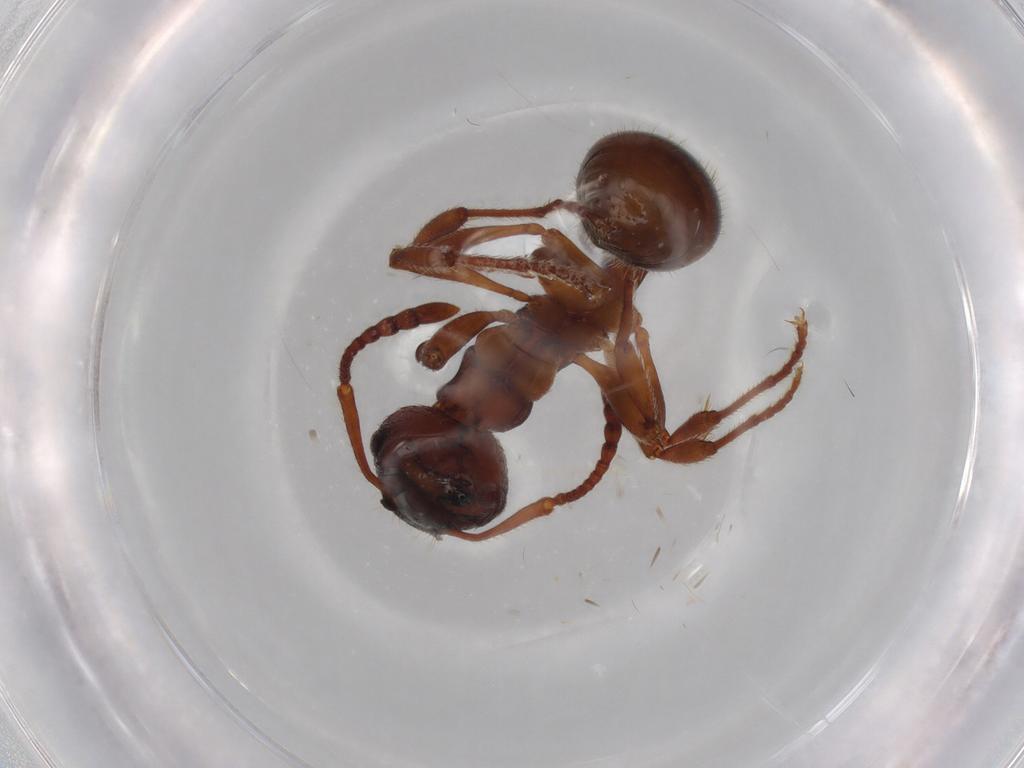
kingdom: Animalia
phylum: Arthropoda
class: Insecta
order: Hymenoptera
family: Formicidae
